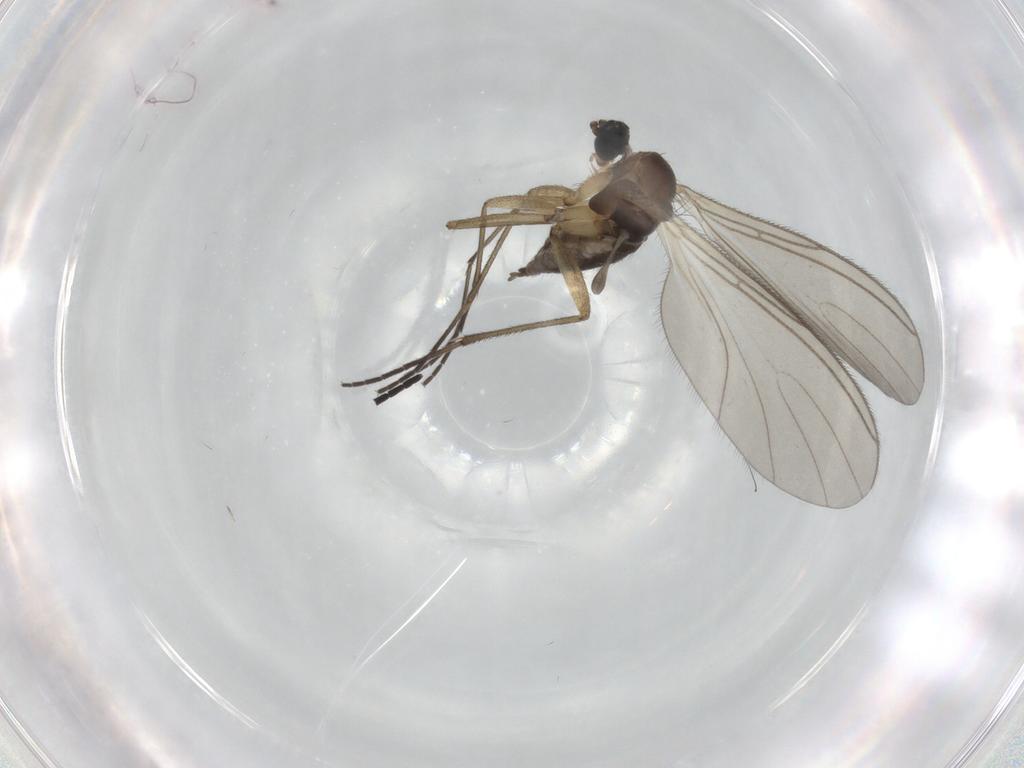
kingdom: Animalia
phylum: Arthropoda
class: Insecta
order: Diptera
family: Sciaridae
